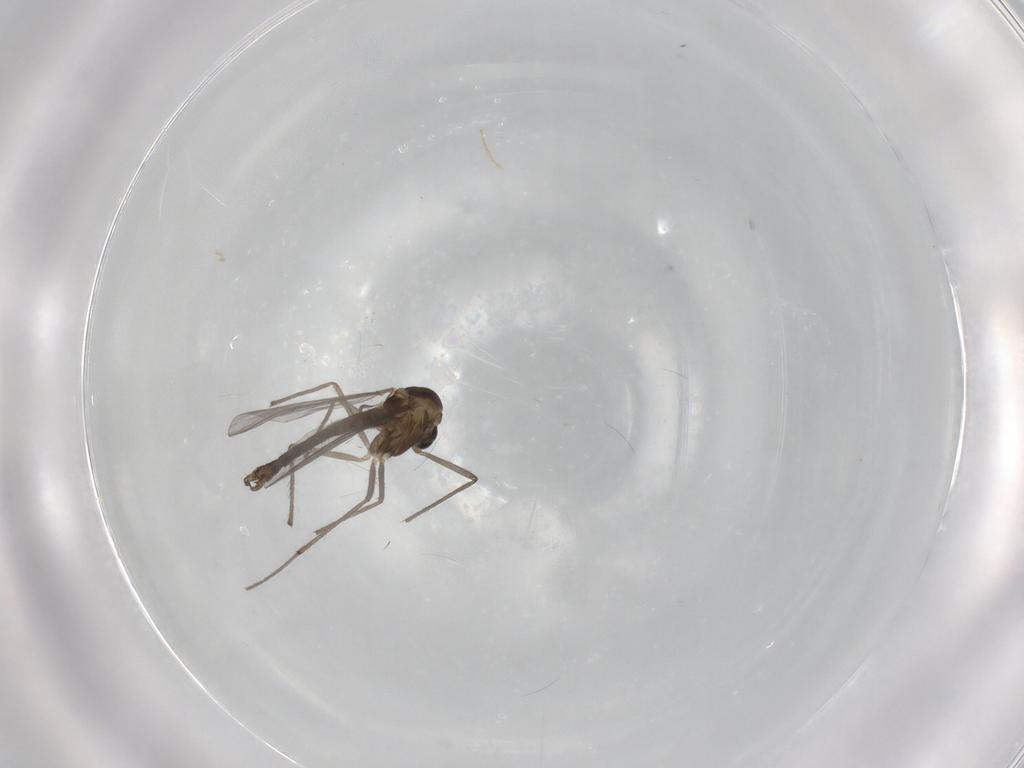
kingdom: Animalia
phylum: Arthropoda
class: Insecta
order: Diptera
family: Chironomidae
